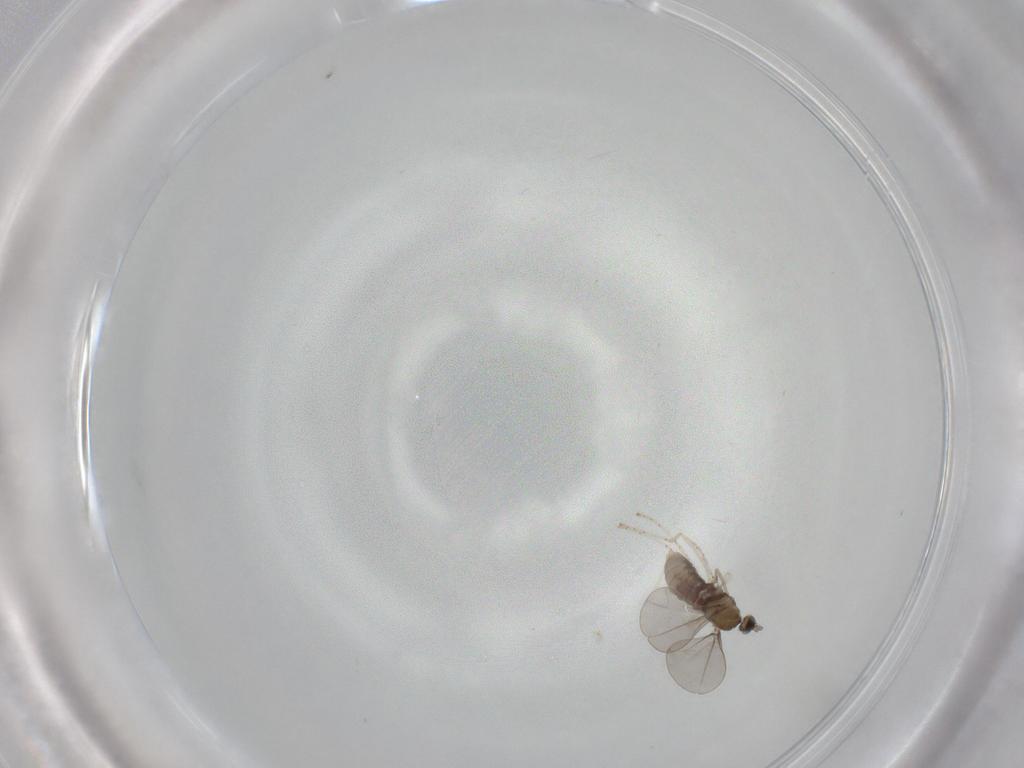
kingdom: Animalia
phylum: Arthropoda
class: Insecta
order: Diptera
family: Cecidomyiidae
